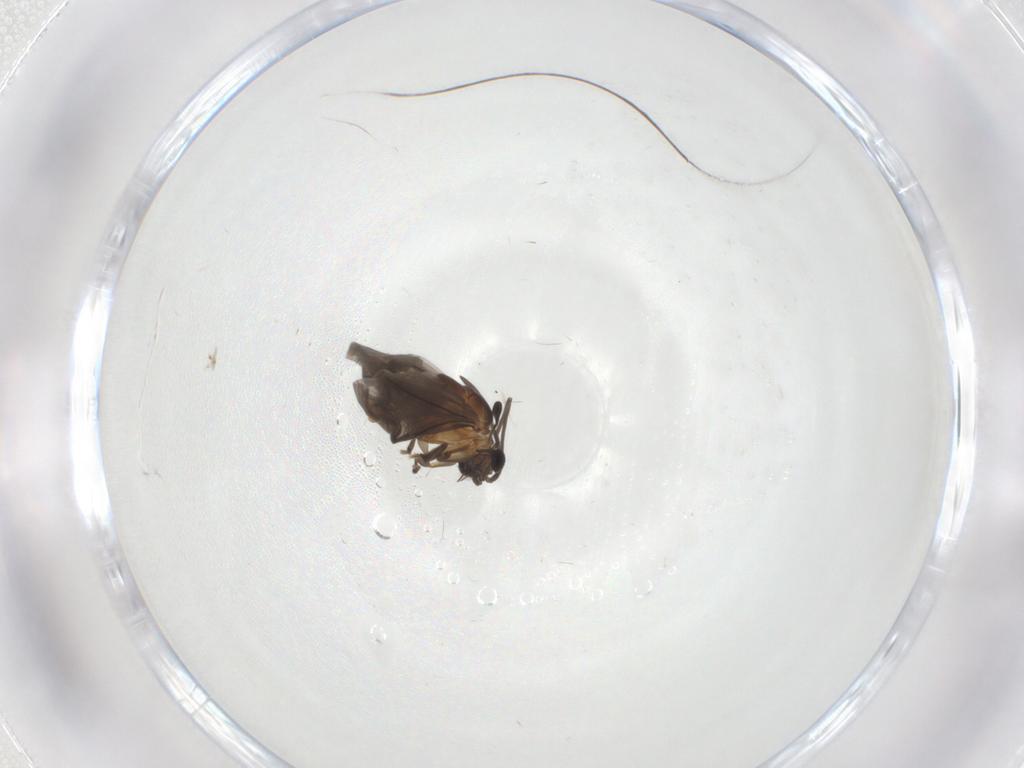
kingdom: Animalia
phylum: Arthropoda
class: Insecta
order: Strepsiptera
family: Myrmecolacidae
